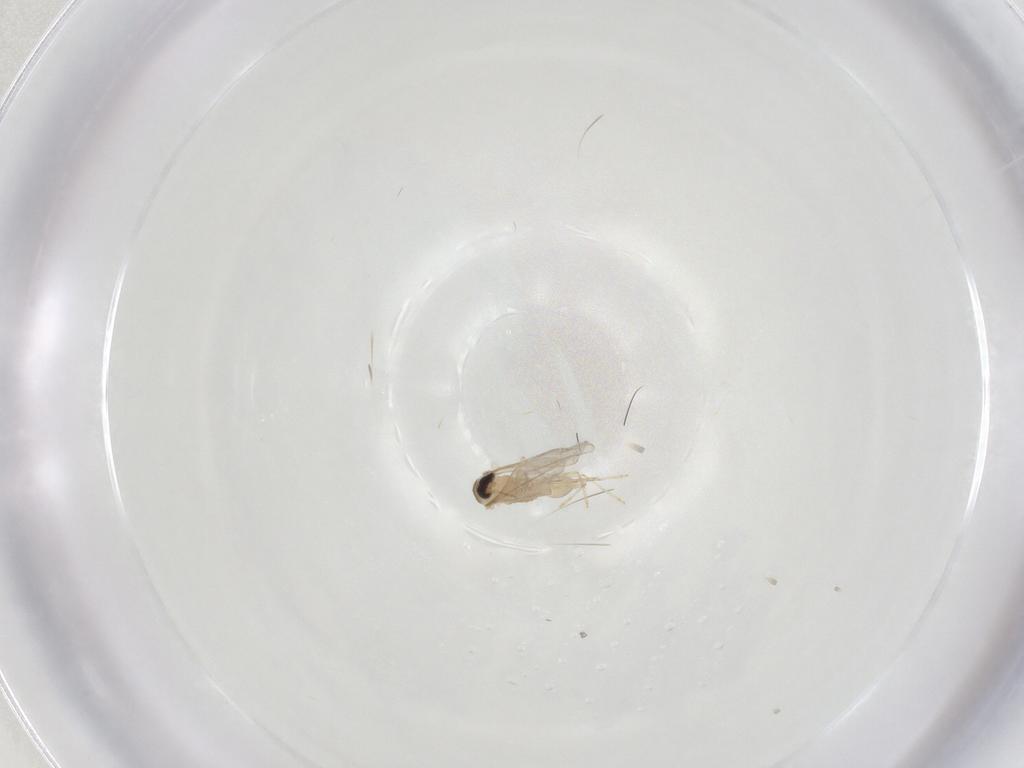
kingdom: Animalia
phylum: Arthropoda
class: Insecta
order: Diptera
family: Cecidomyiidae
